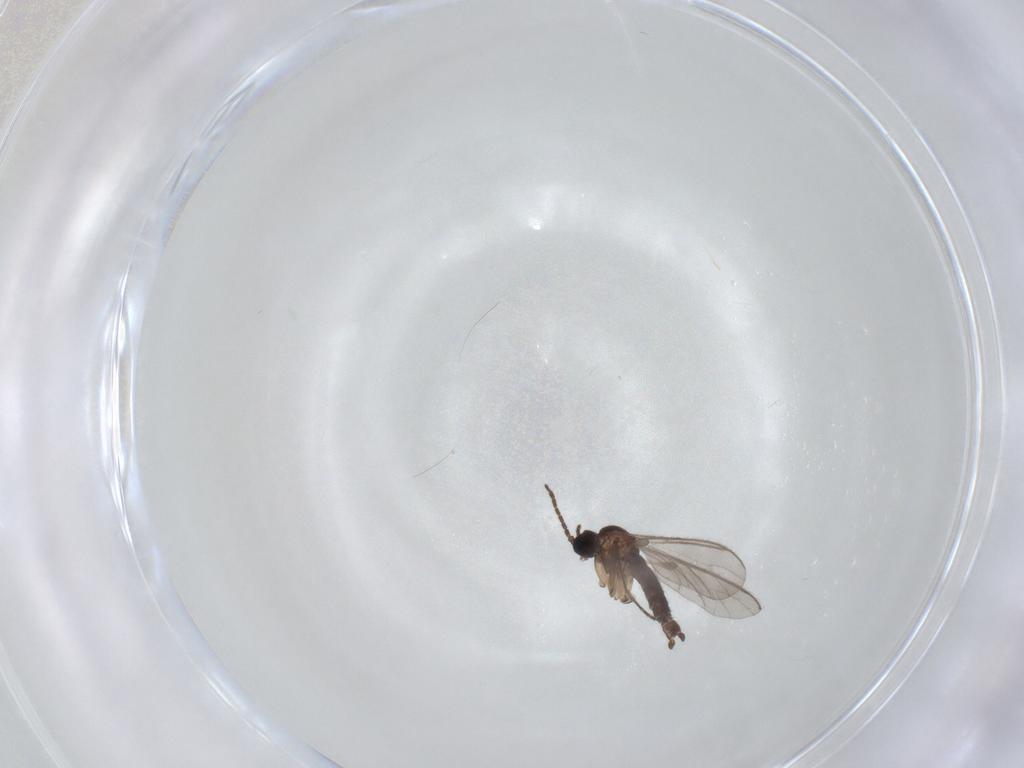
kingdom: Animalia
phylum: Arthropoda
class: Insecta
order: Diptera
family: Sciaridae
